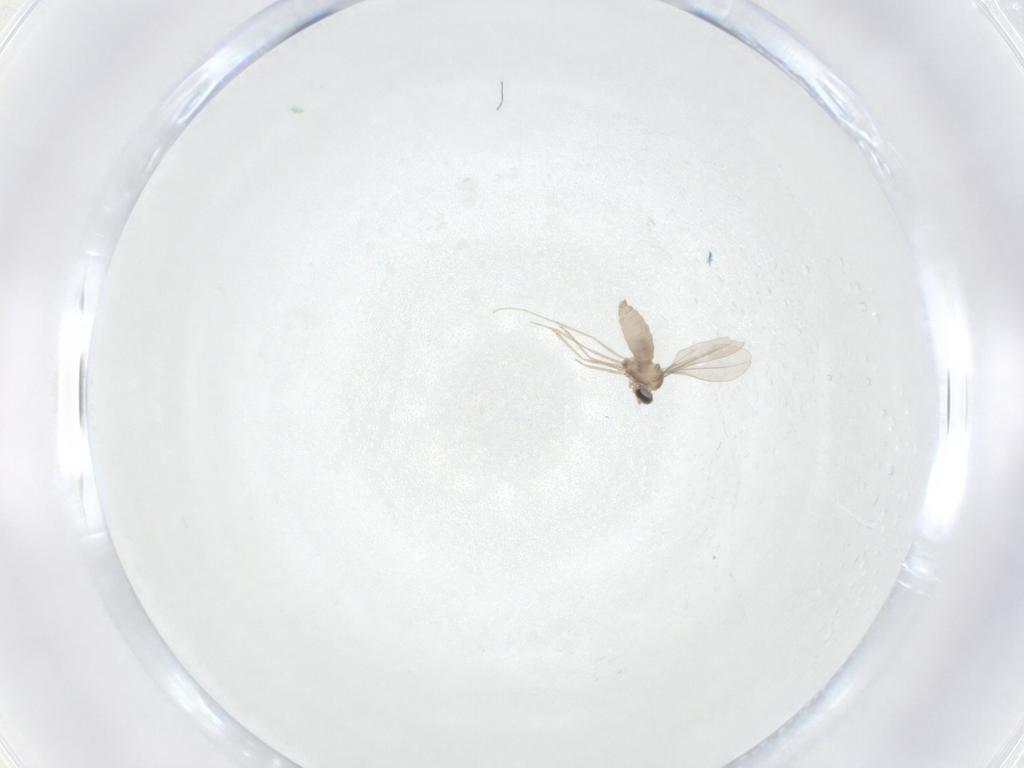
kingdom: Animalia
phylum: Arthropoda
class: Insecta
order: Diptera
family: Cecidomyiidae
